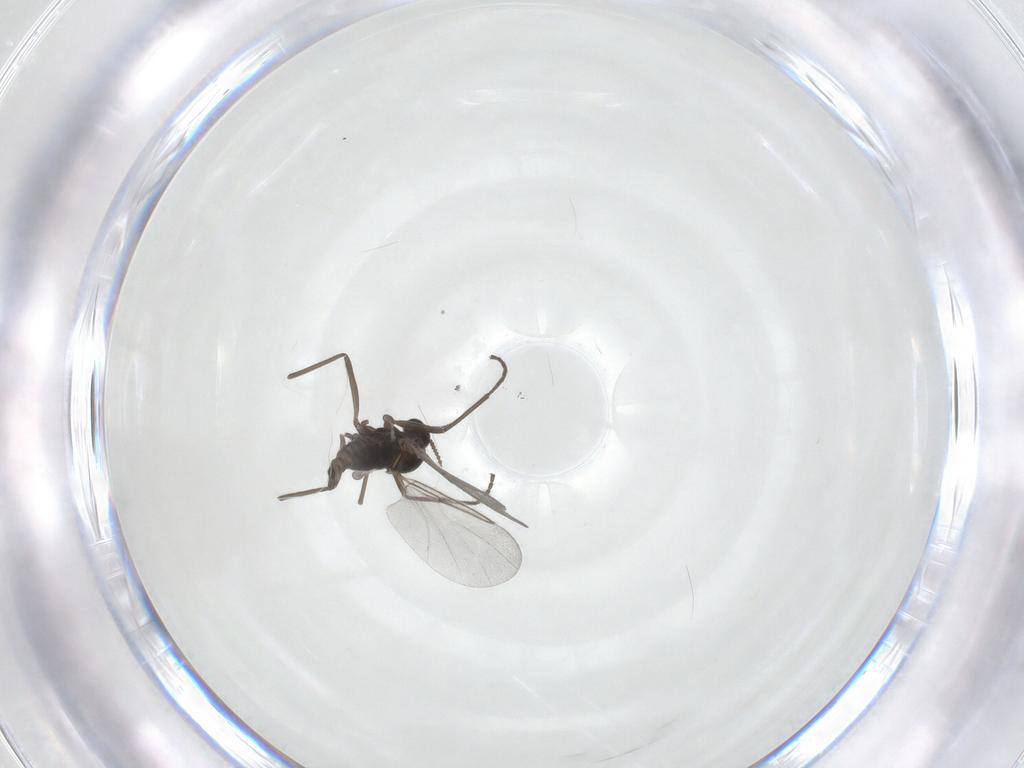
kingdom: Animalia
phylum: Arthropoda
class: Insecta
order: Diptera
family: Cecidomyiidae
